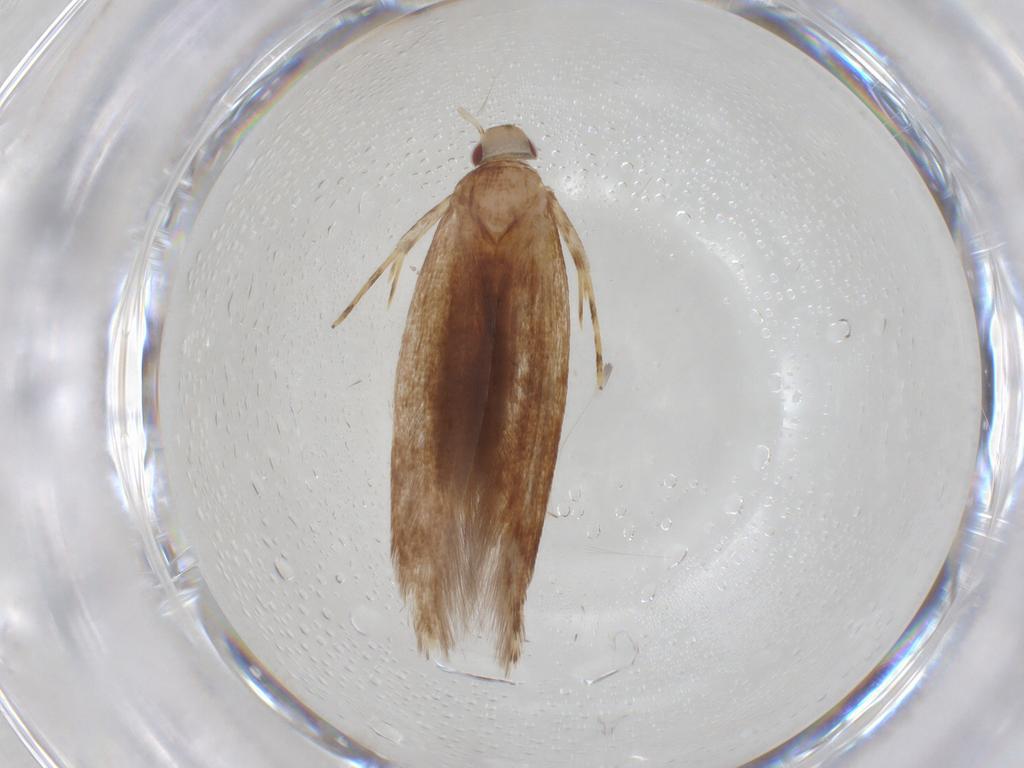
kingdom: Animalia
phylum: Arthropoda
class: Insecta
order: Lepidoptera
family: Cosmopterigidae
